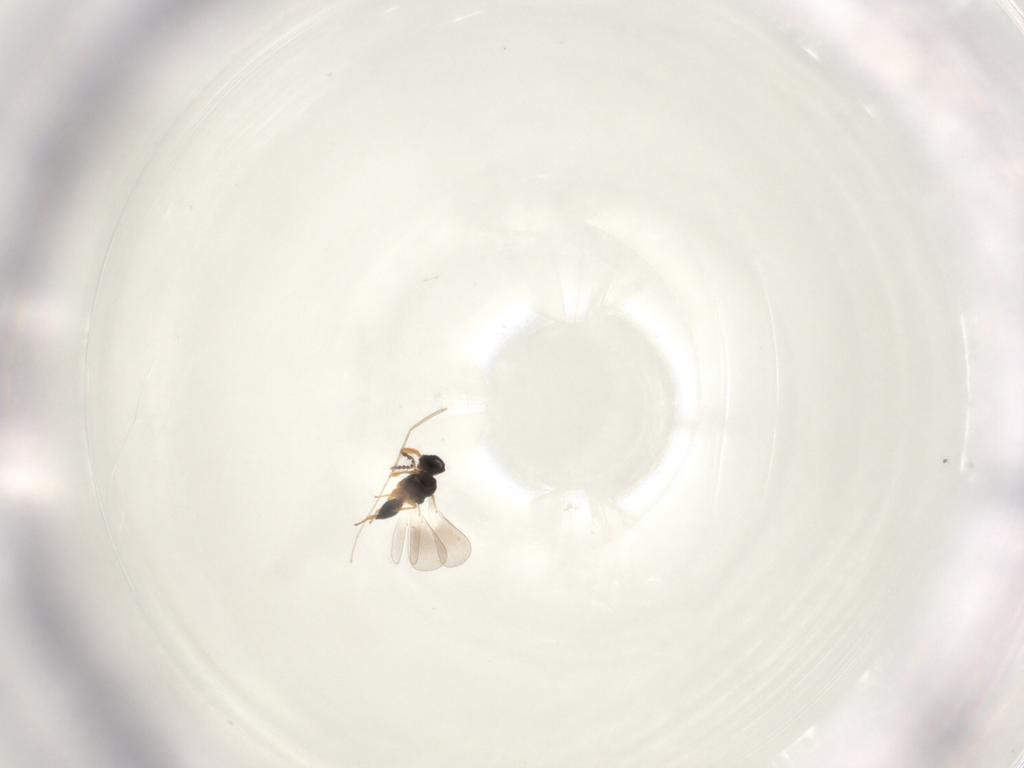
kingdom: Animalia
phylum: Arthropoda
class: Insecta
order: Hymenoptera
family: Platygastridae
